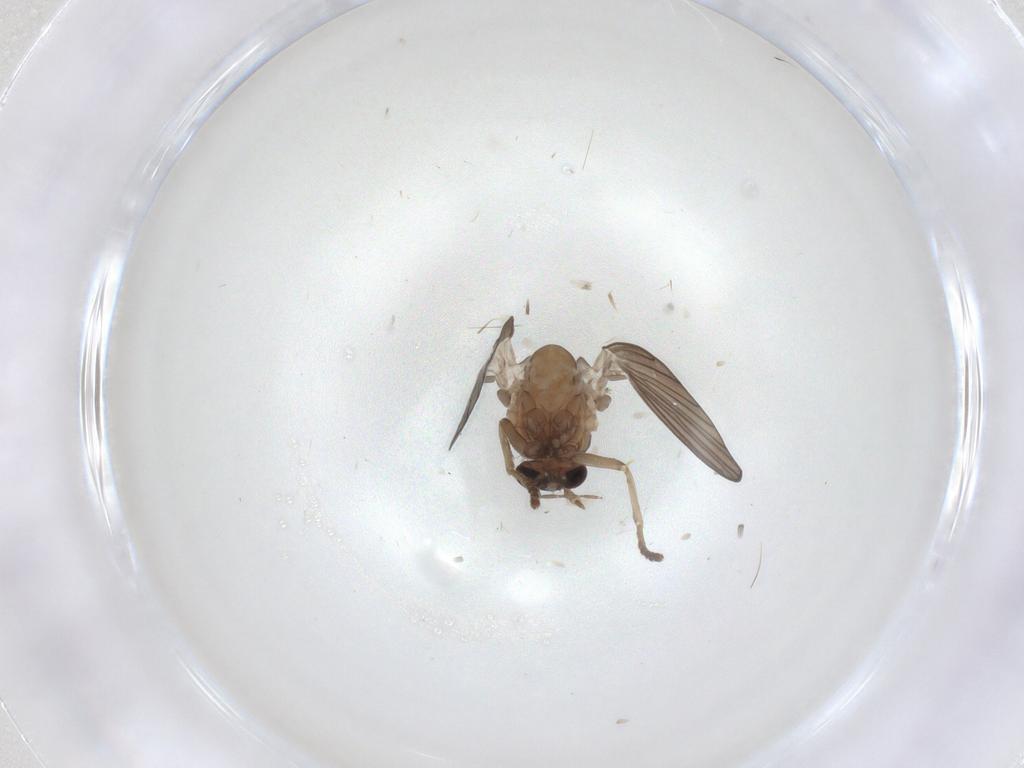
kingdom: Animalia
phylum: Arthropoda
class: Insecta
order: Diptera
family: Psychodidae
